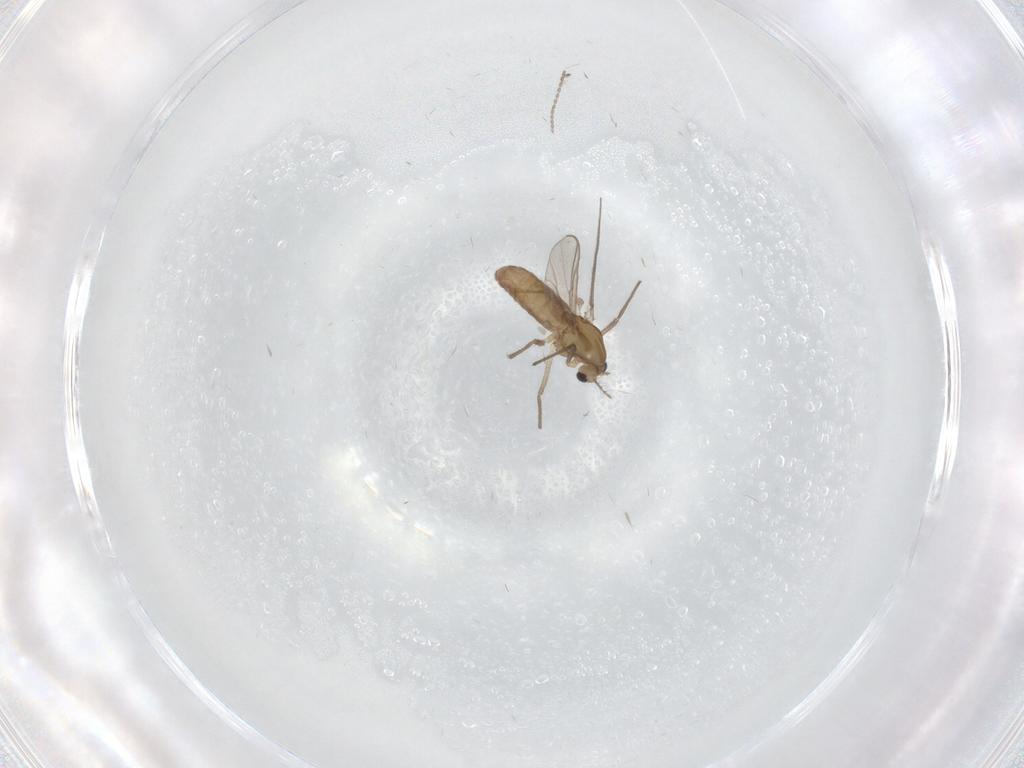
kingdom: Animalia
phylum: Arthropoda
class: Insecta
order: Diptera
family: Chironomidae
